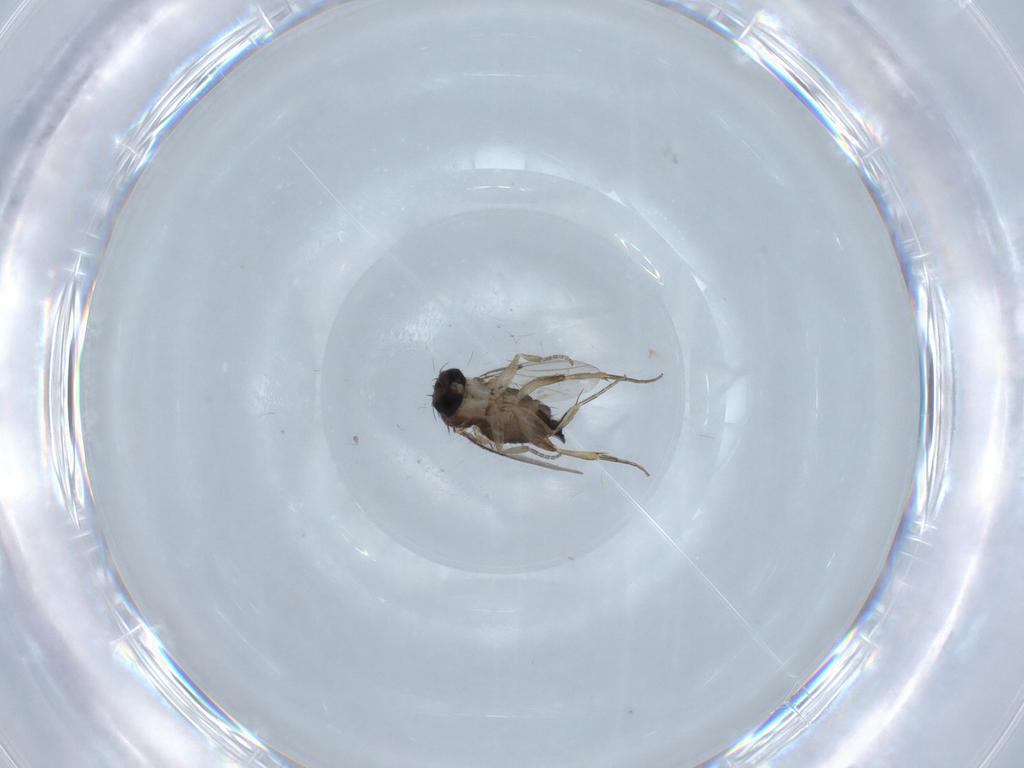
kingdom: Animalia
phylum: Arthropoda
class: Insecta
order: Diptera
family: Phoridae
